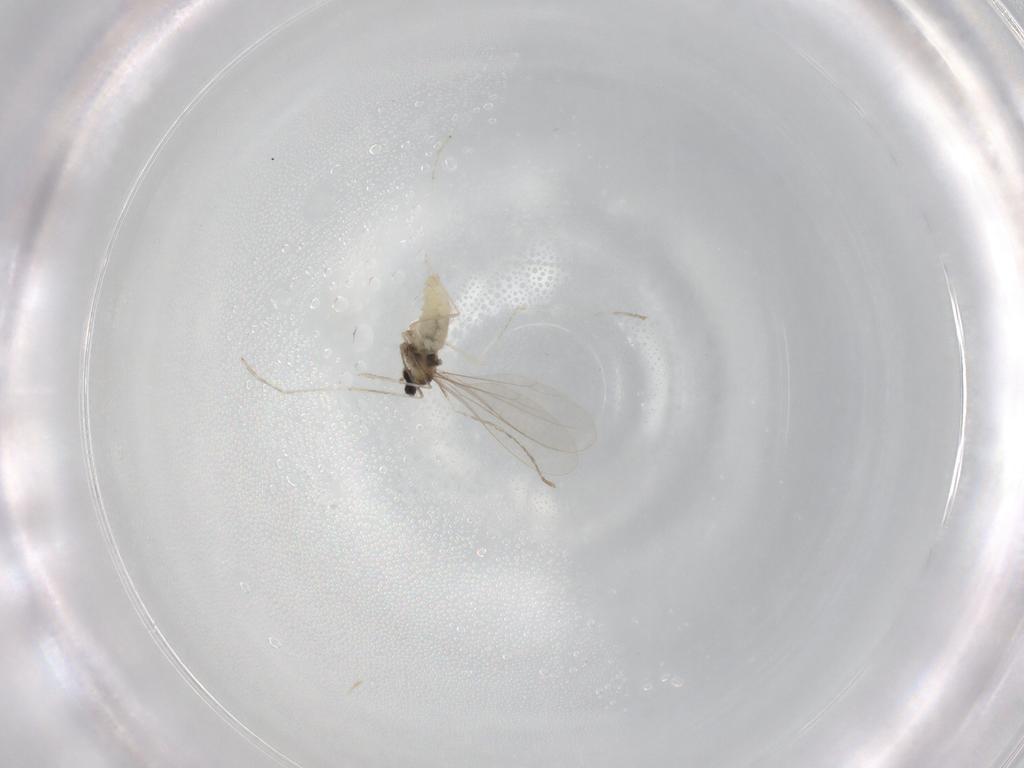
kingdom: Animalia
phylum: Arthropoda
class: Insecta
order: Diptera
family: Cecidomyiidae
